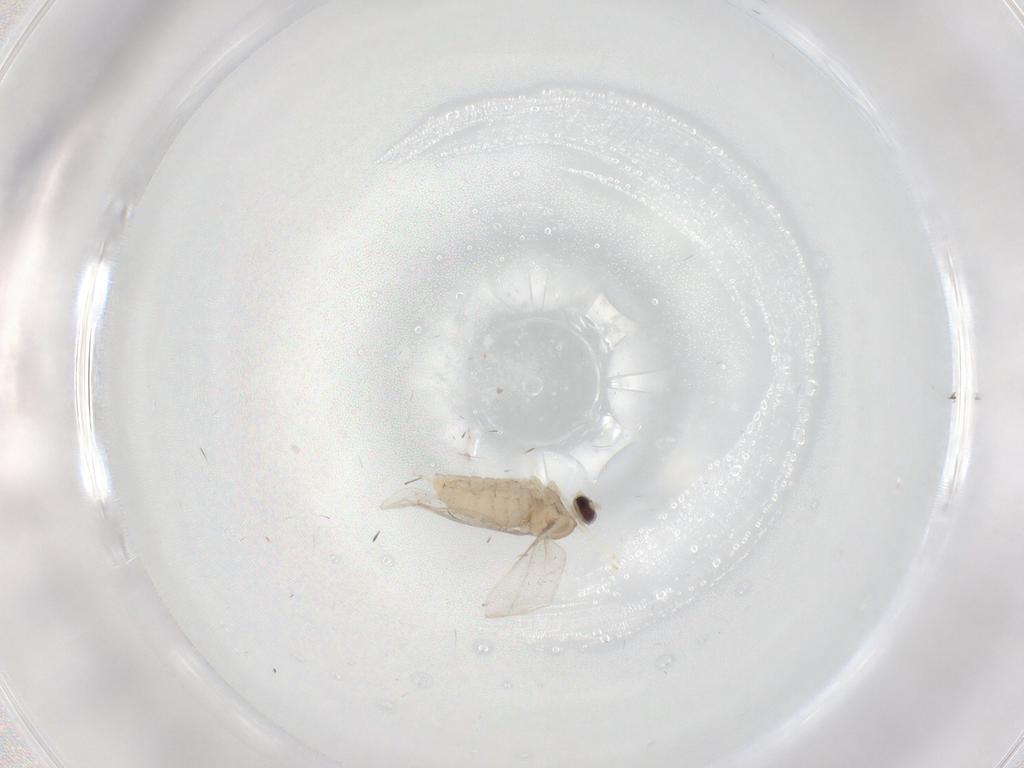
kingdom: Animalia
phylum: Arthropoda
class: Insecta
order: Diptera
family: Cecidomyiidae
